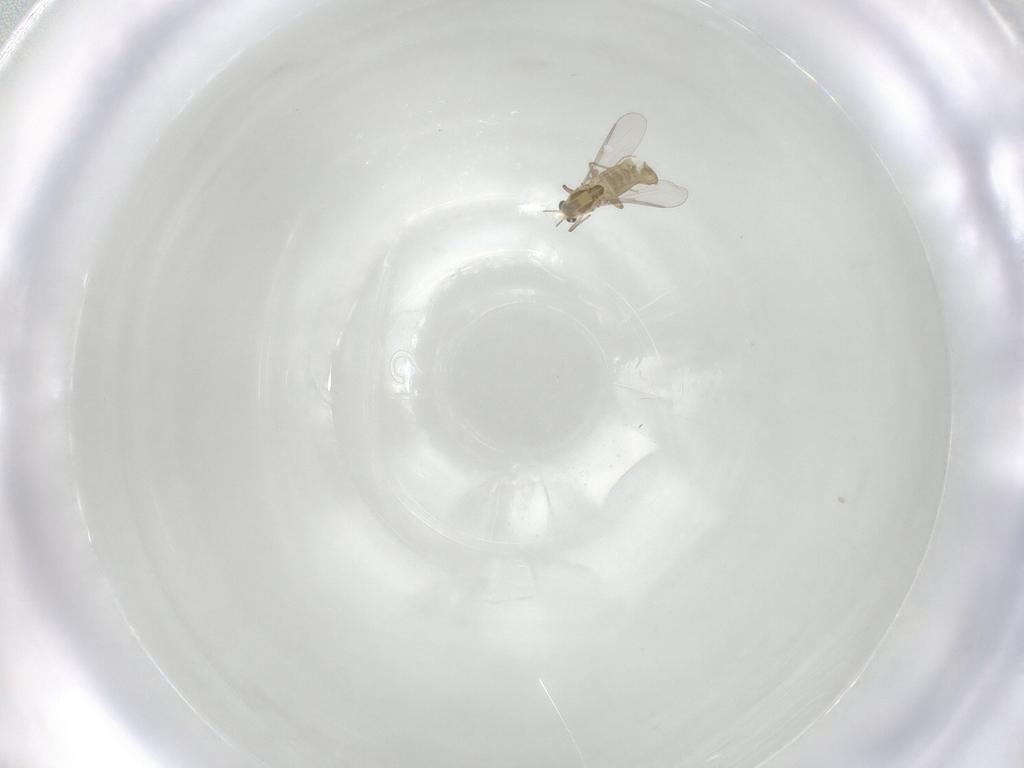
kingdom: Animalia
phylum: Arthropoda
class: Insecta
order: Diptera
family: Chironomidae
